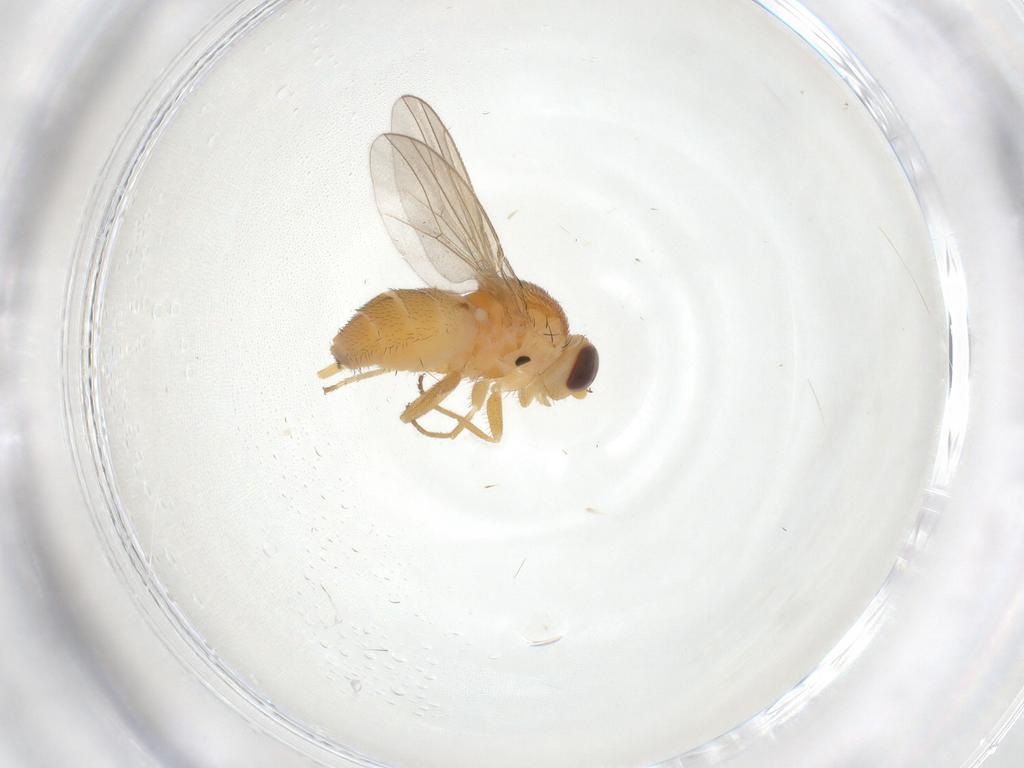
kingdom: Animalia
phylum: Arthropoda
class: Insecta
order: Diptera
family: Chloropidae
